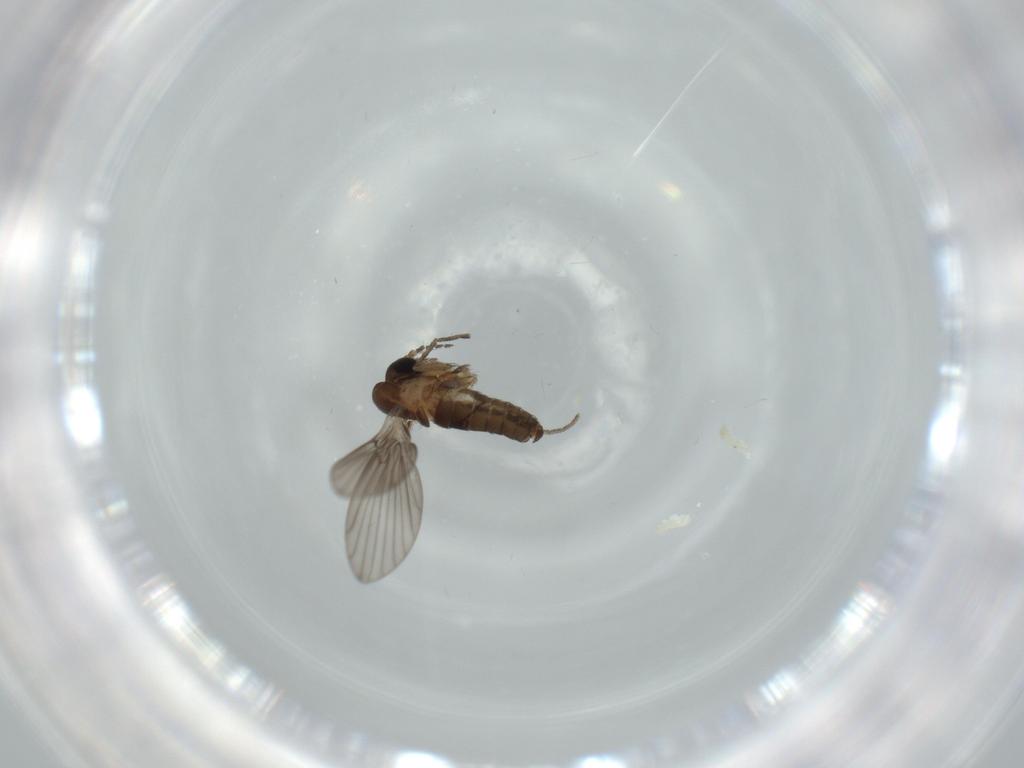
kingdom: Animalia
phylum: Arthropoda
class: Insecta
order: Diptera
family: Psychodidae
